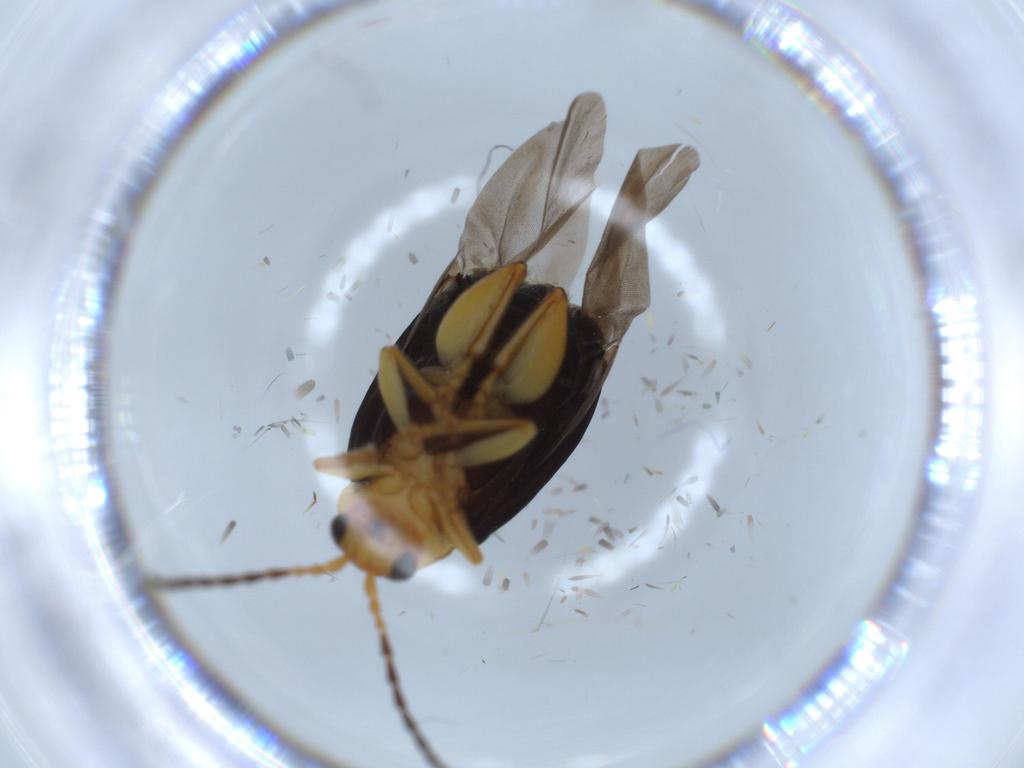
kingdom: Animalia
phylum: Arthropoda
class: Insecta
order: Coleoptera
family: Chrysomelidae
